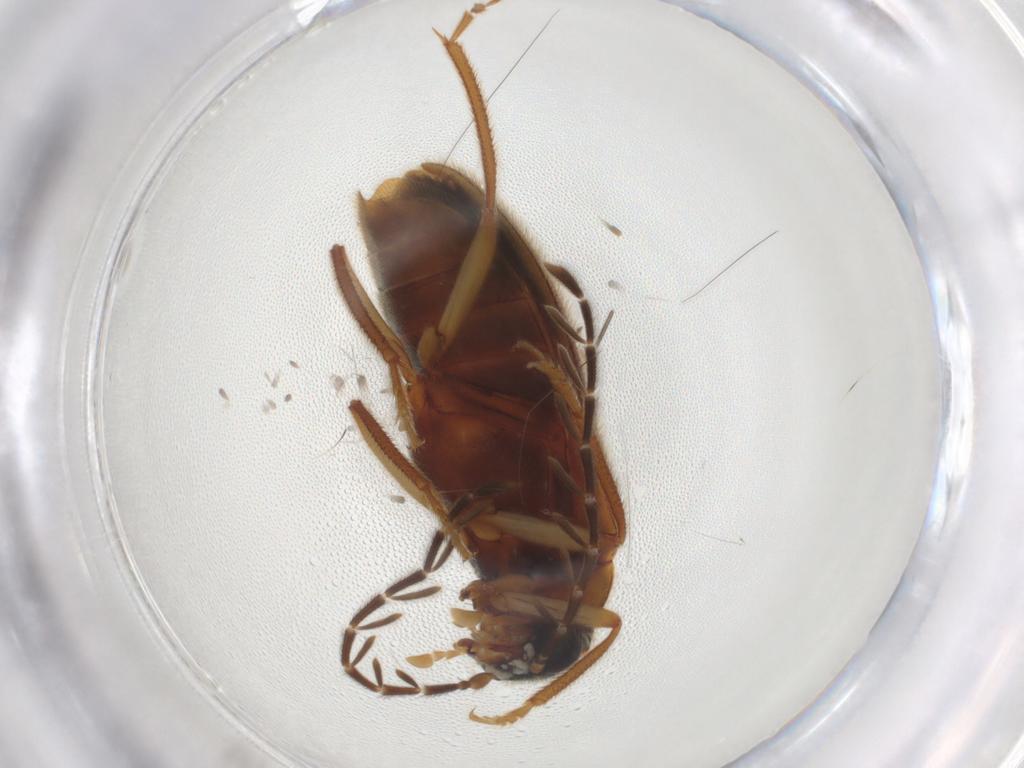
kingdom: Animalia
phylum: Arthropoda
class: Insecta
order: Coleoptera
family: Ptilodactylidae
